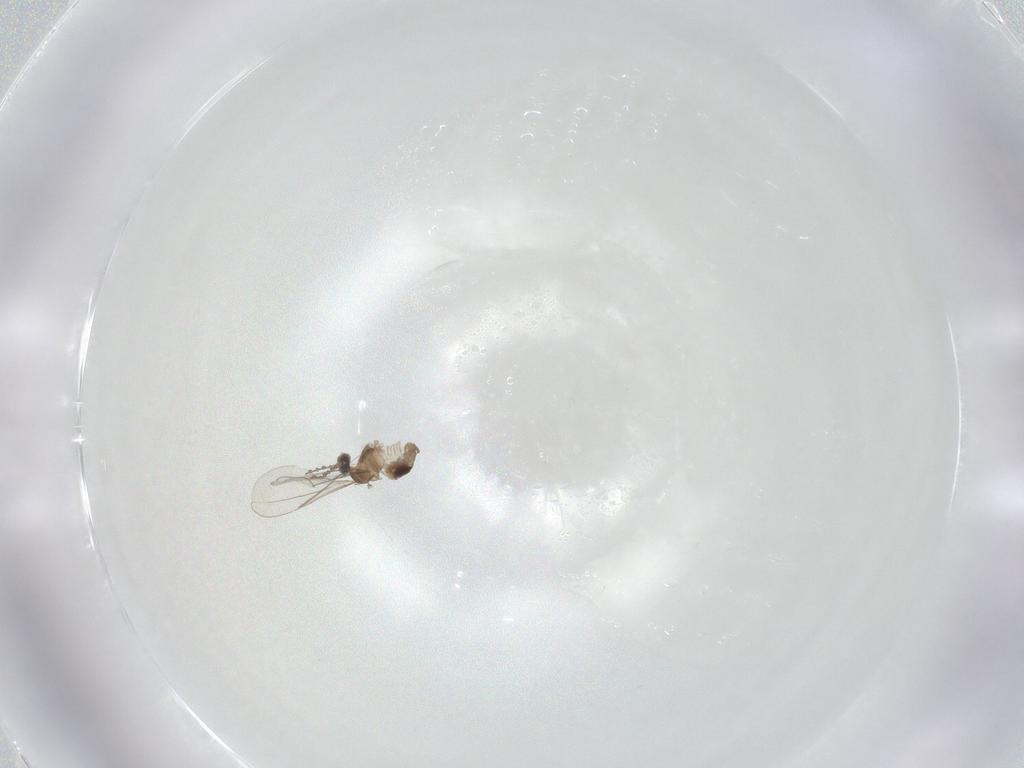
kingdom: Animalia
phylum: Arthropoda
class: Insecta
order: Diptera
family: Cecidomyiidae
